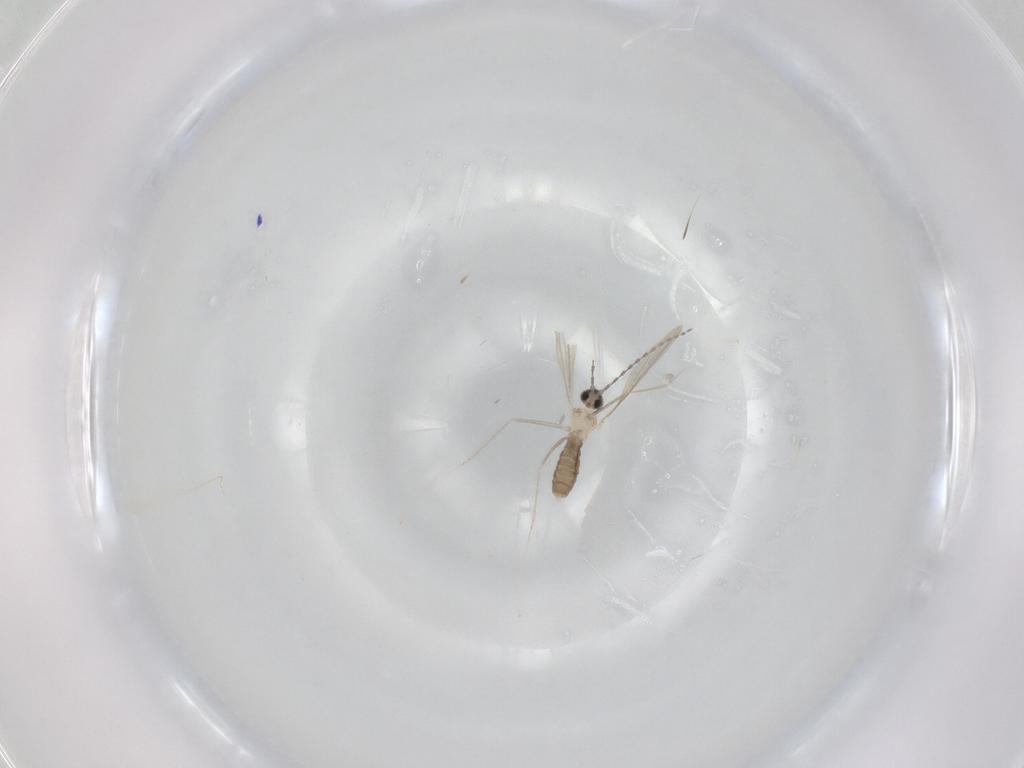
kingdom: Animalia
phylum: Arthropoda
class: Insecta
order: Diptera
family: Cecidomyiidae
